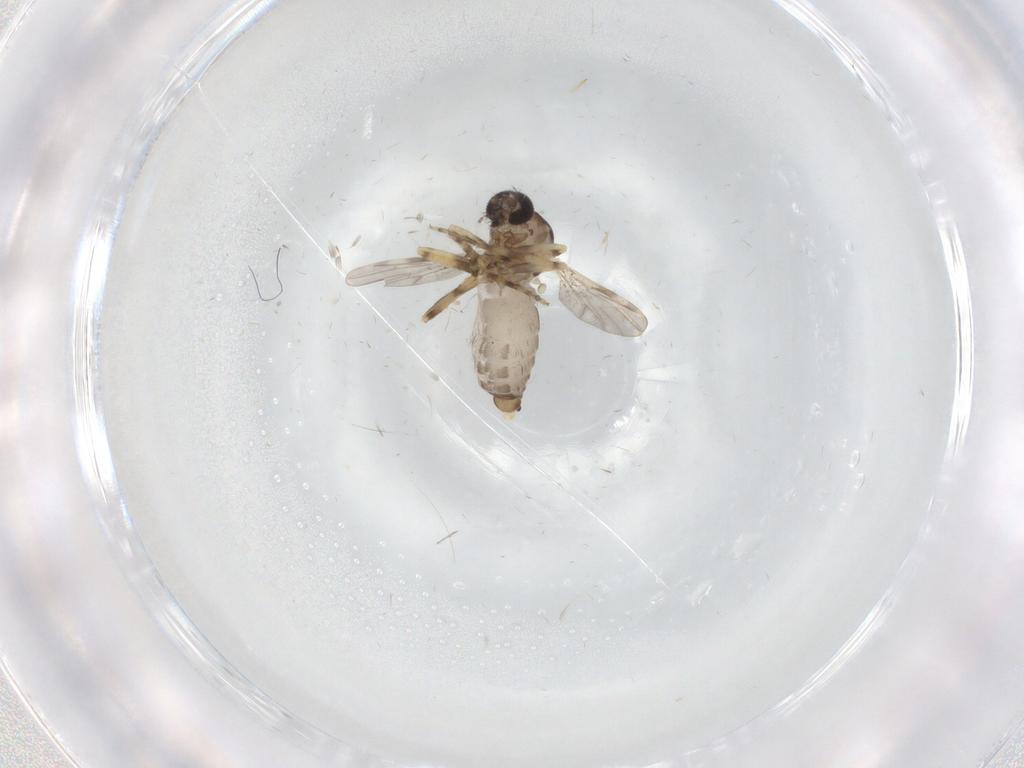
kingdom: Animalia
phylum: Arthropoda
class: Insecta
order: Diptera
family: Ceratopogonidae
